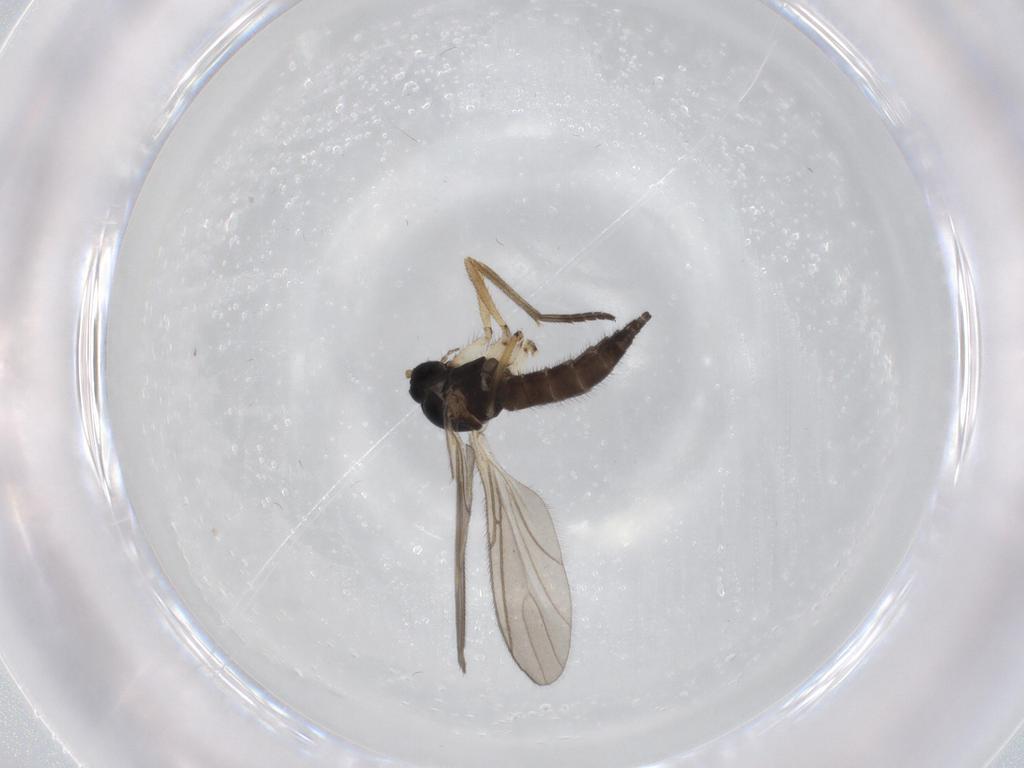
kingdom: Animalia
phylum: Arthropoda
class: Insecta
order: Diptera
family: Sciaridae
